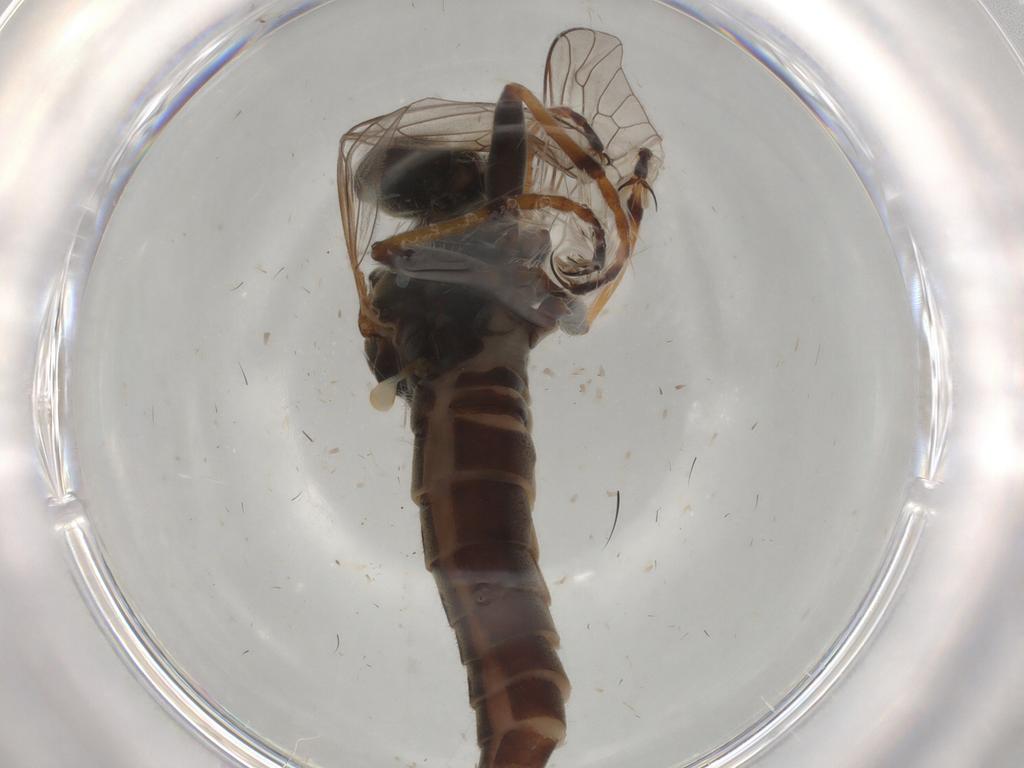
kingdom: Animalia
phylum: Arthropoda
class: Insecta
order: Diptera
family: Asilidae
